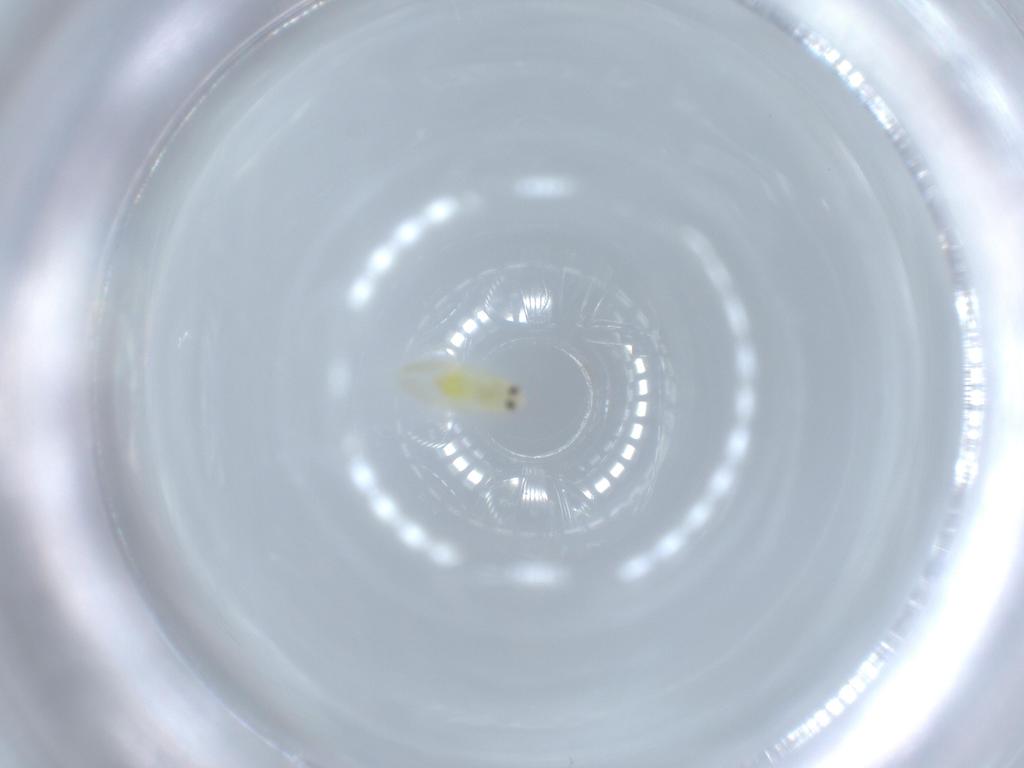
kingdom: Animalia
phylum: Arthropoda
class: Insecta
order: Hemiptera
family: Aleyrodidae
